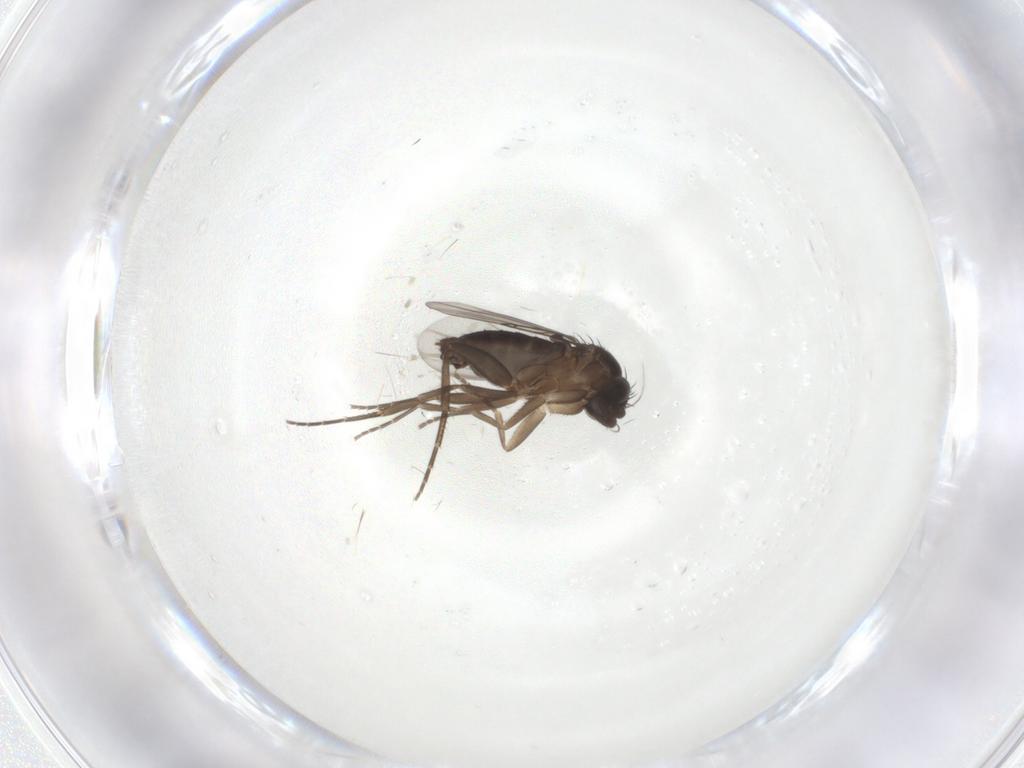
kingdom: Animalia
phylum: Arthropoda
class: Insecta
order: Diptera
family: Phoridae
